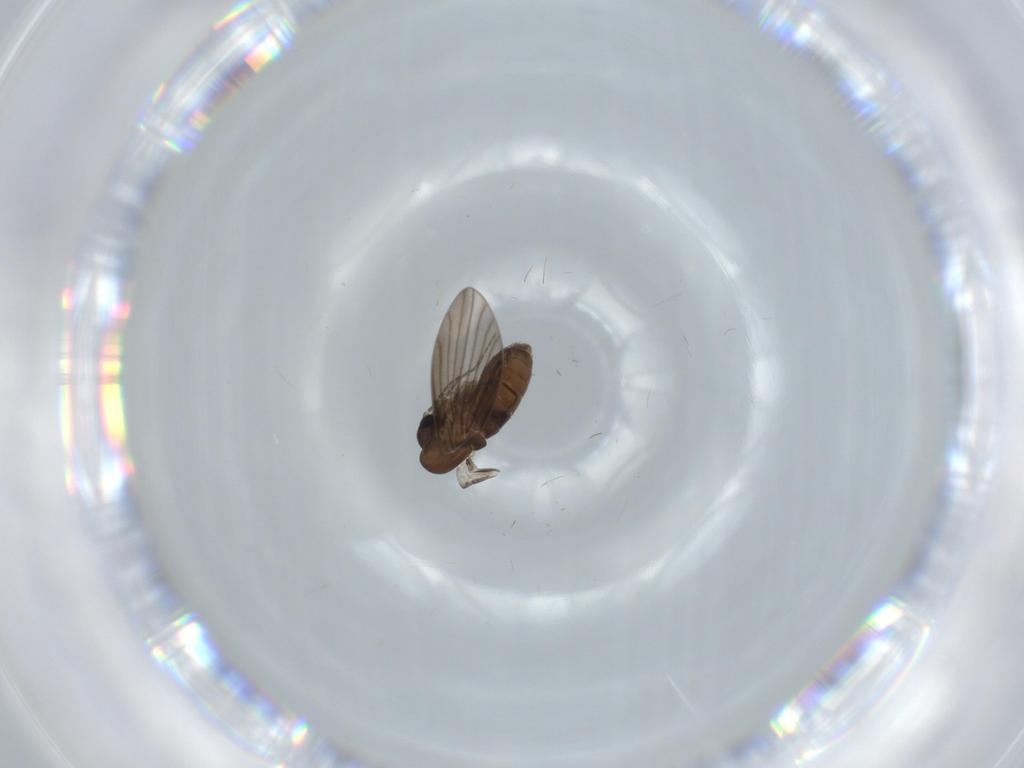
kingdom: Animalia
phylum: Arthropoda
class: Insecta
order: Diptera
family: Psychodidae
